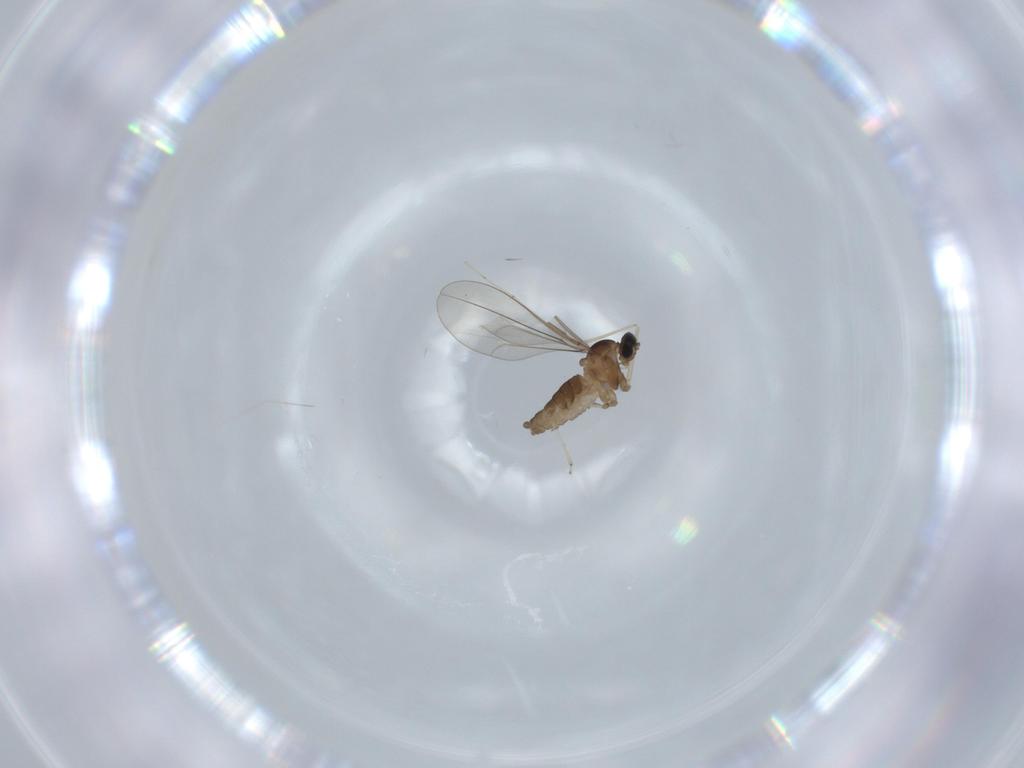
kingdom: Animalia
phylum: Arthropoda
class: Insecta
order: Diptera
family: Cecidomyiidae
